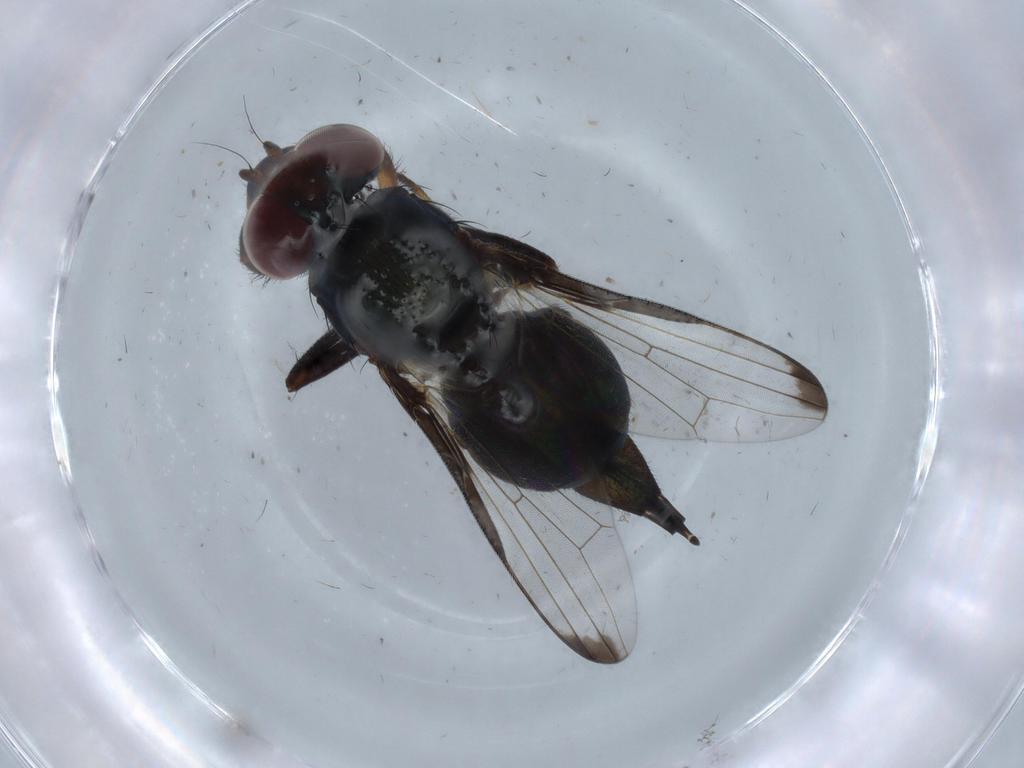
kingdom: Animalia
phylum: Arthropoda
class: Insecta
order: Diptera
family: Ulidiidae
